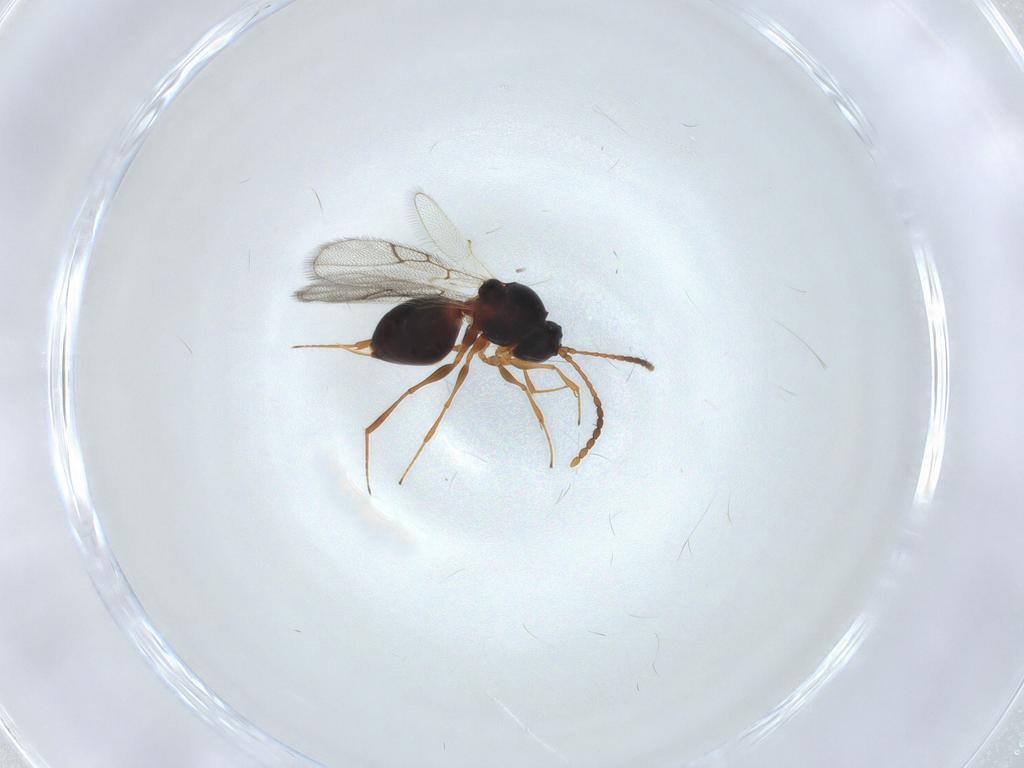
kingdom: Animalia
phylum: Arthropoda
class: Insecta
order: Hymenoptera
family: Figitidae
